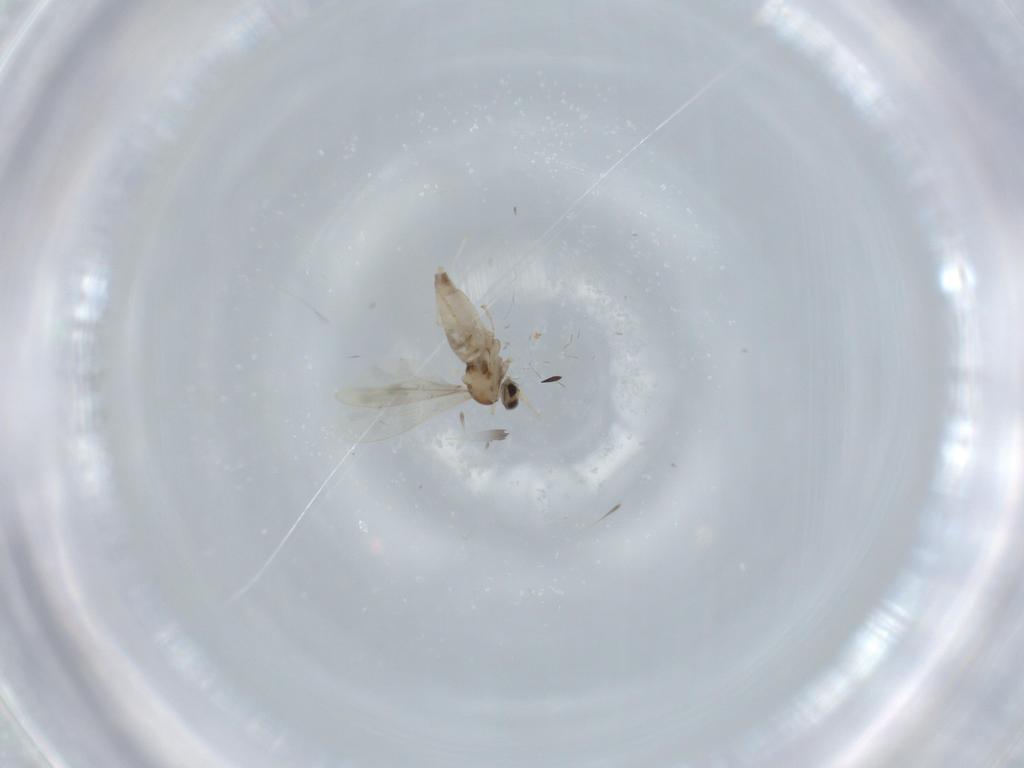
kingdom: Animalia
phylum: Arthropoda
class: Insecta
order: Diptera
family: Cecidomyiidae
